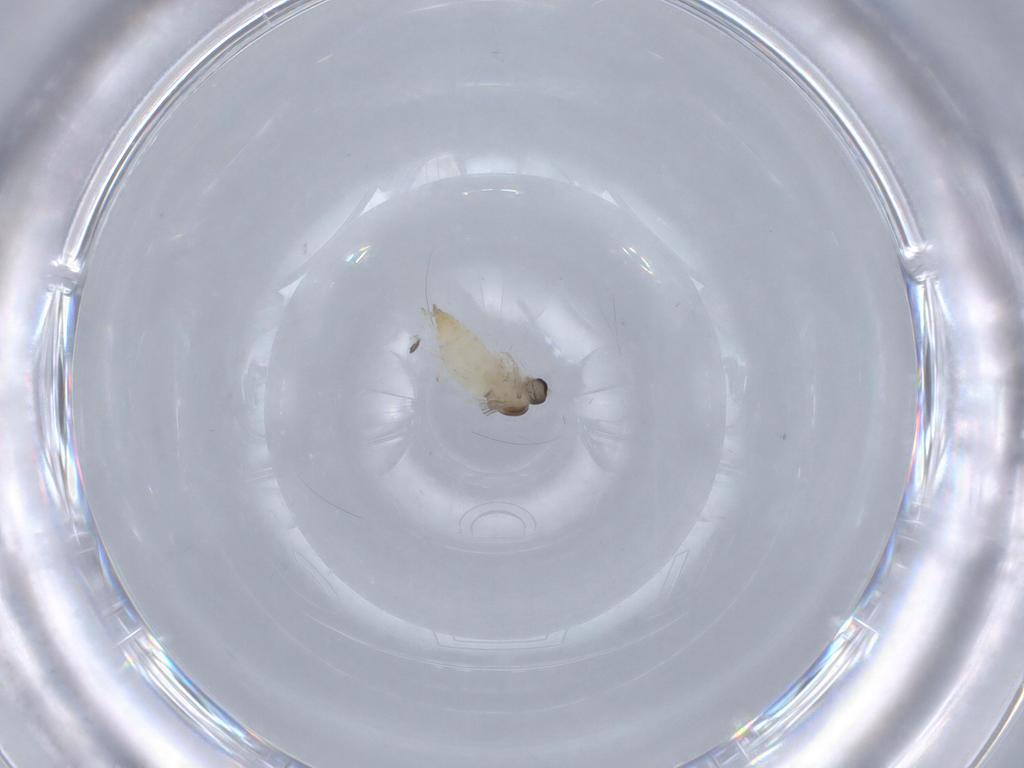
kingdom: Animalia
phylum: Arthropoda
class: Insecta
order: Diptera
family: Cecidomyiidae
